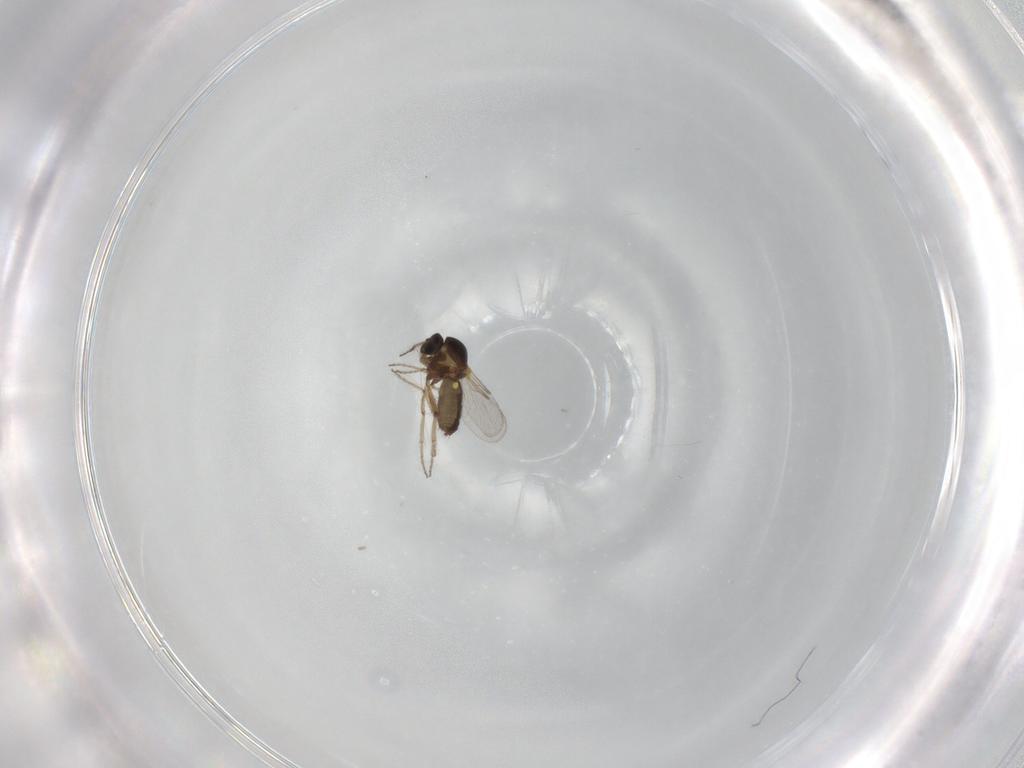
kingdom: Animalia
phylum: Arthropoda
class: Insecta
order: Diptera
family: Ceratopogonidae
